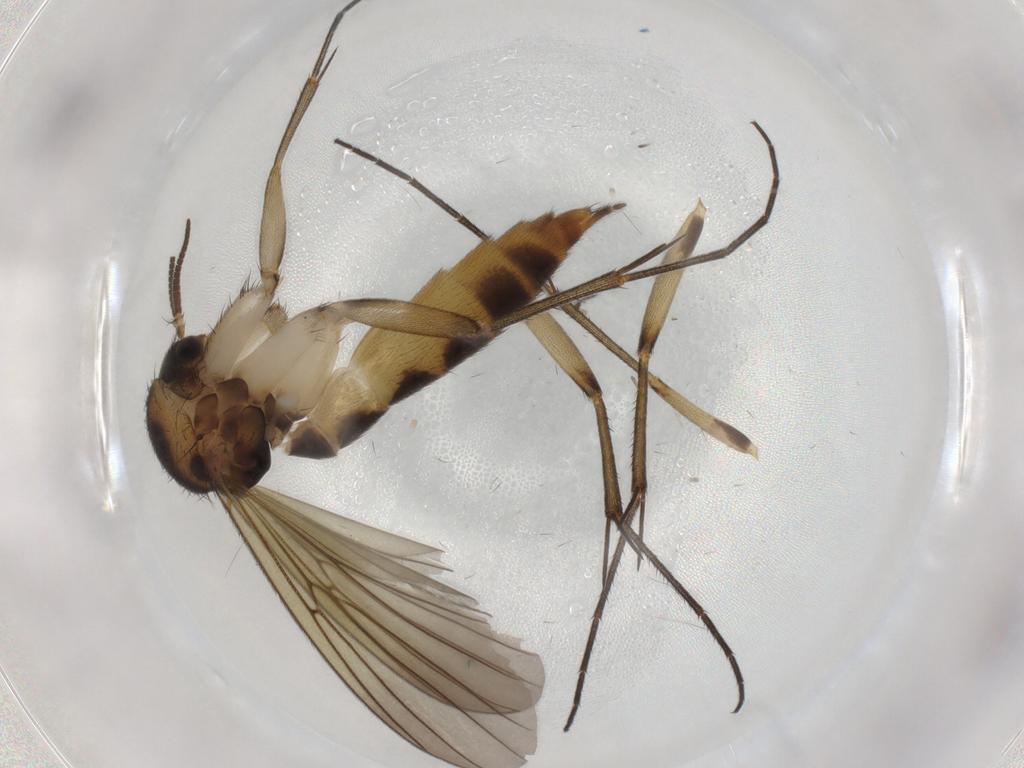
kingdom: Animalia
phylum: Arthropoda
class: Insecta
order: Diptera
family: Mycetophilidae
